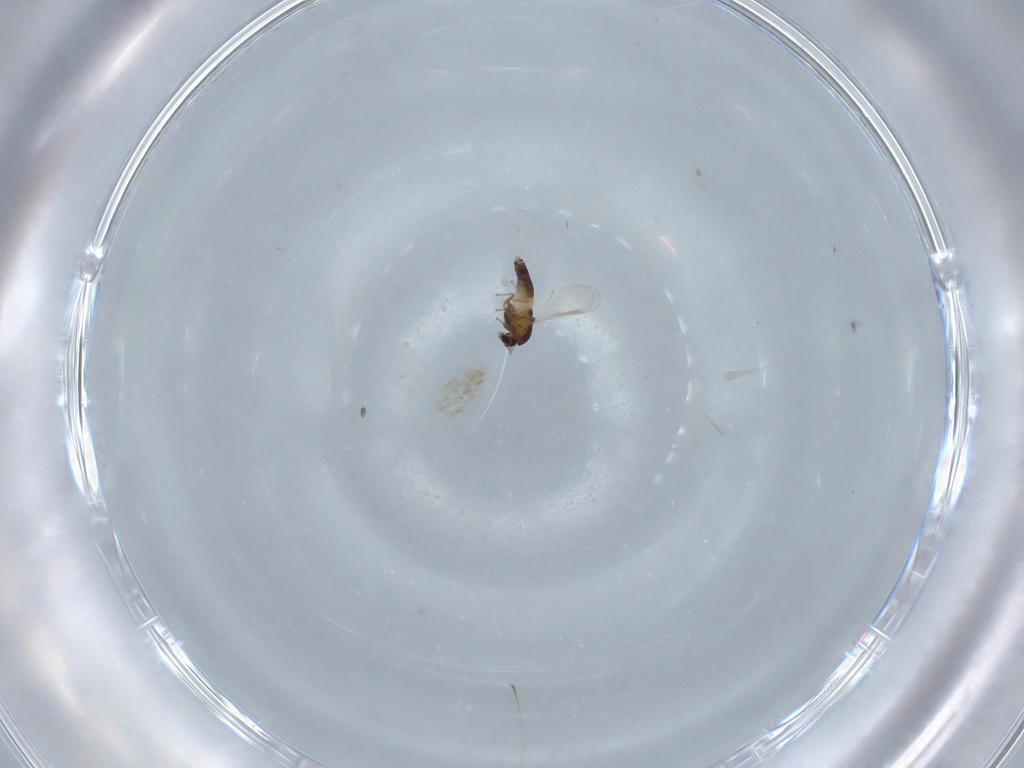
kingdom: Animalia
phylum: Arthropoda
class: Insecta
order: Diptera
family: Chironomidae
